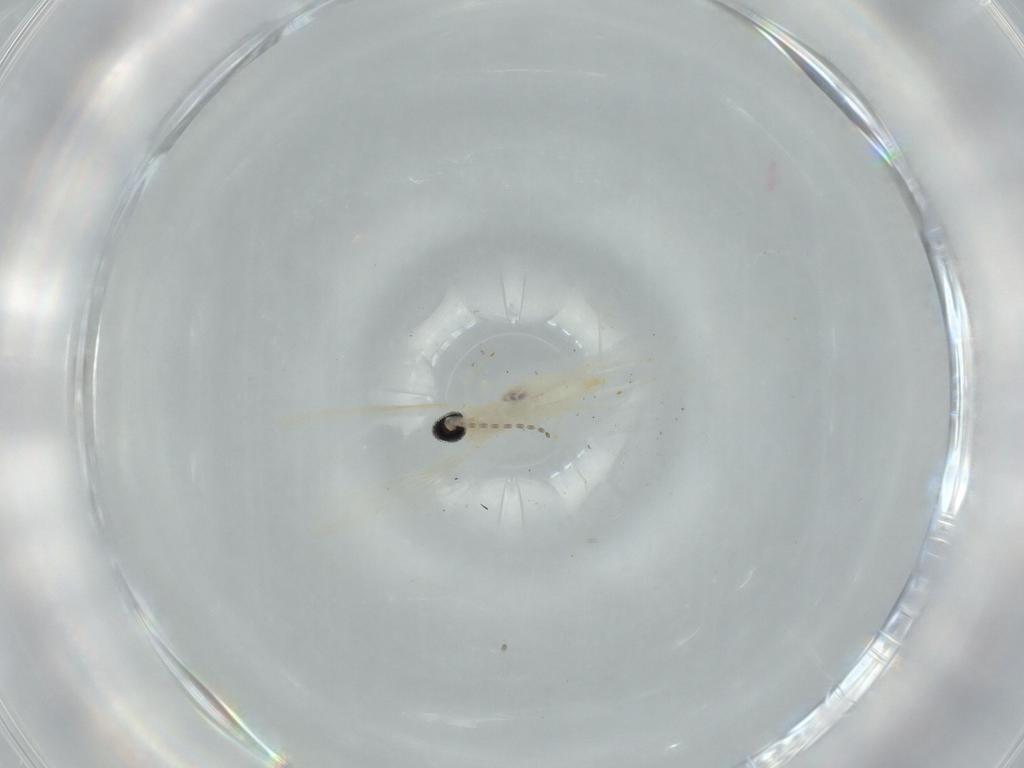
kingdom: Animalia
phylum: Arthropoda
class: Insecta
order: Diptera
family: Cecidomyiidae
